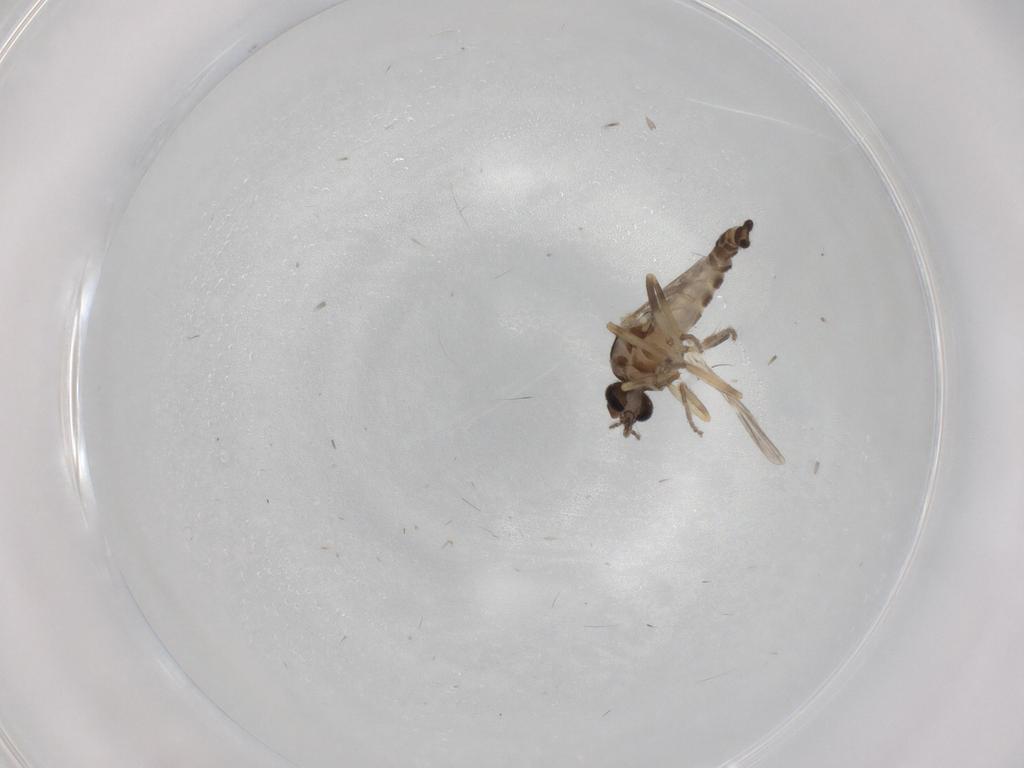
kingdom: Animalia
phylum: Arthropoda
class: Insecta
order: Diptera
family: Ceratopogonidae
